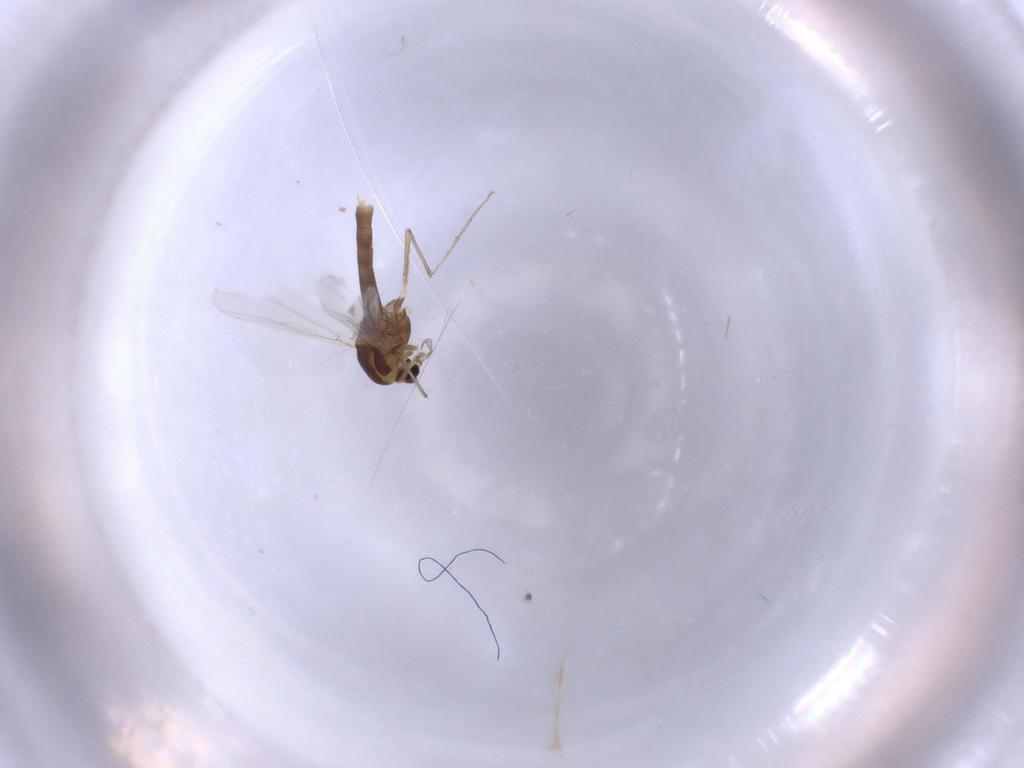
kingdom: Animalia
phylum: Arthropoda
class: Insecta
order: Diptera
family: Chironomidae
